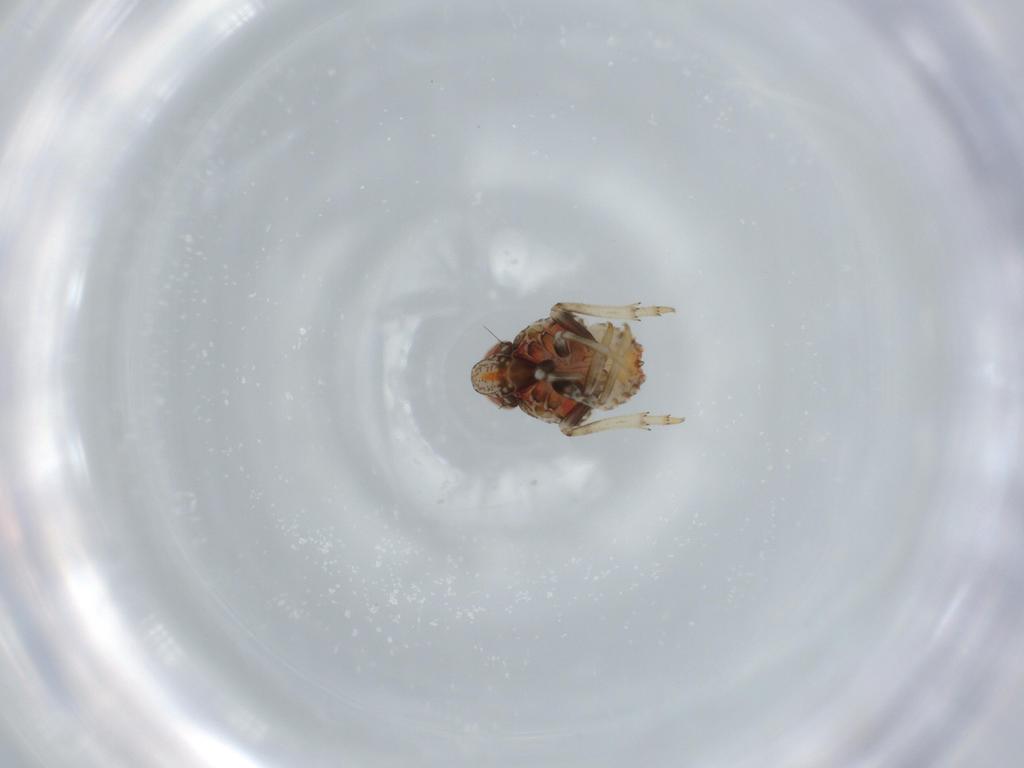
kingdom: Animalia
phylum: Arthropoda
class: Insecta
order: Hemiptera
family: Issidae
